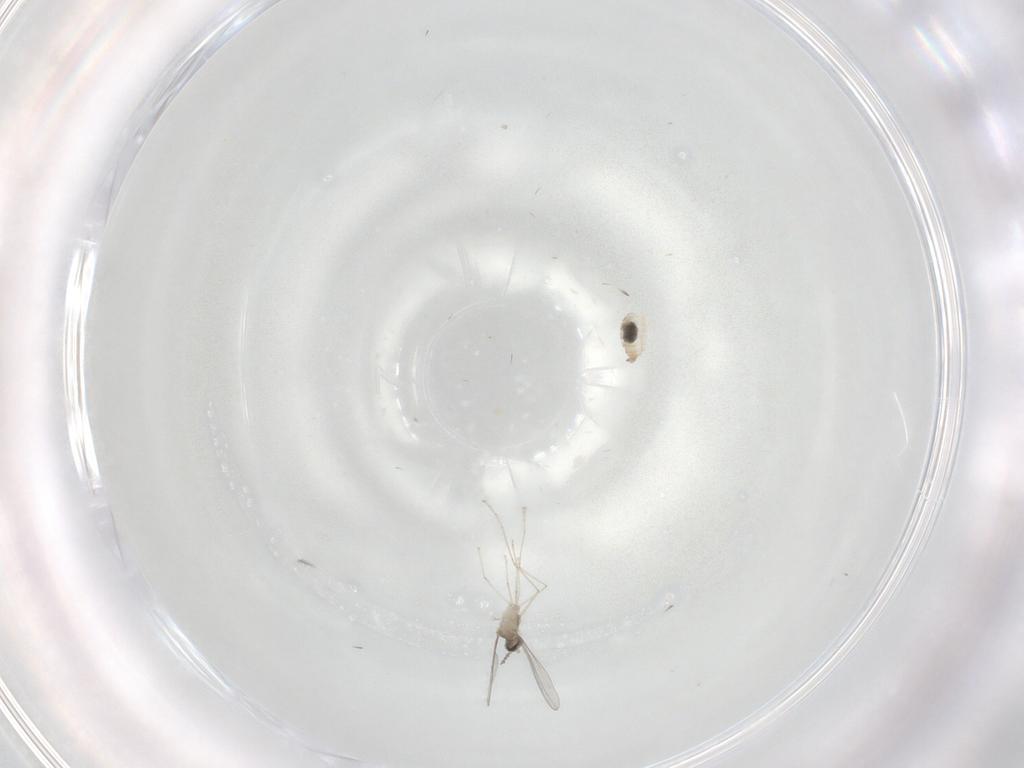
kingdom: Animalia
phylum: Arthropoda
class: Insecta
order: Diptera
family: Cecidomyiidae
